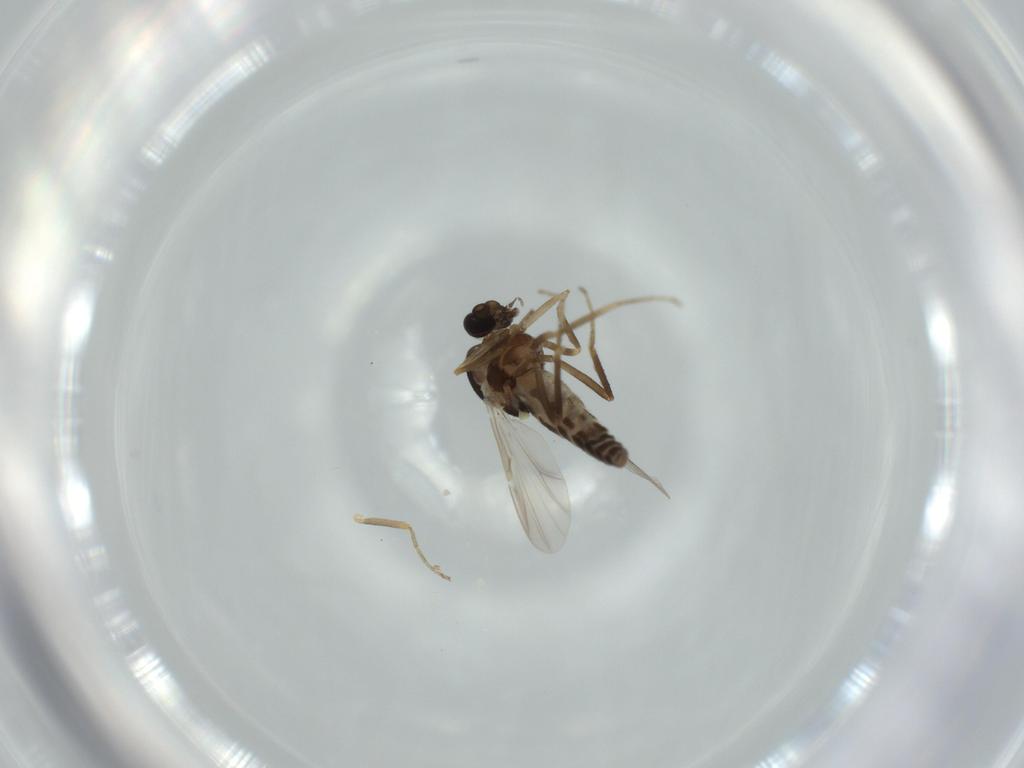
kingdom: Animalia
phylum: Arthropoda
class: Insecta
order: Diptera
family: Ceratopogonidae
